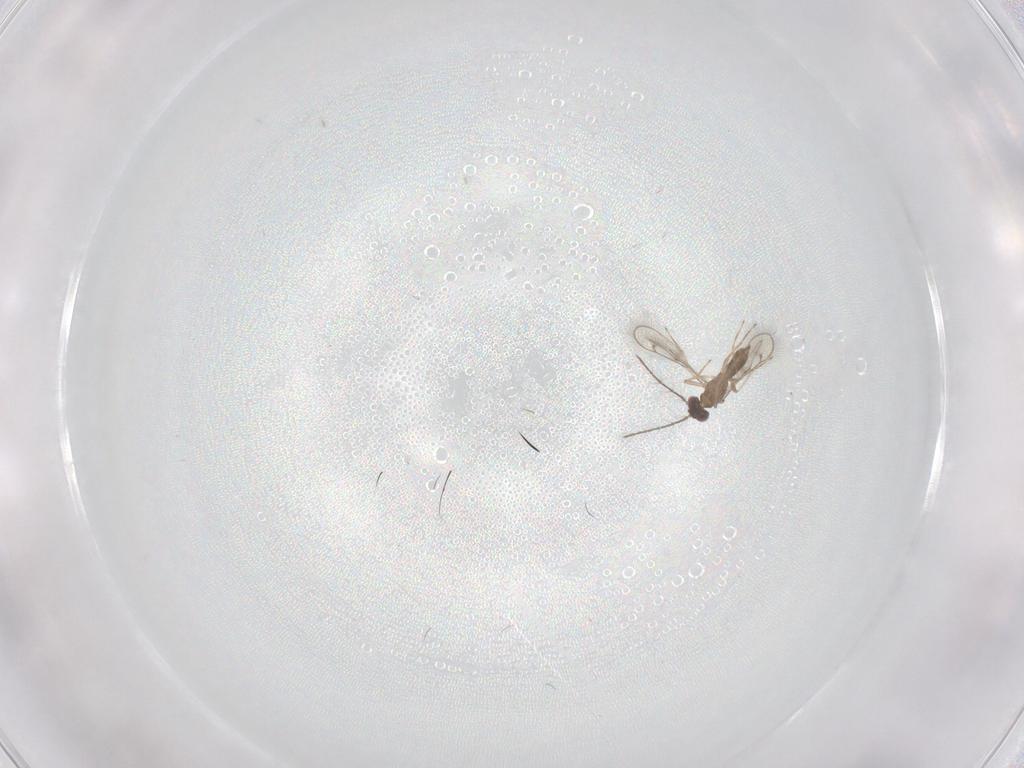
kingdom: Animalia
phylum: Arthropoda
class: Insecta
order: Hymenoptera
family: Eulophidae
